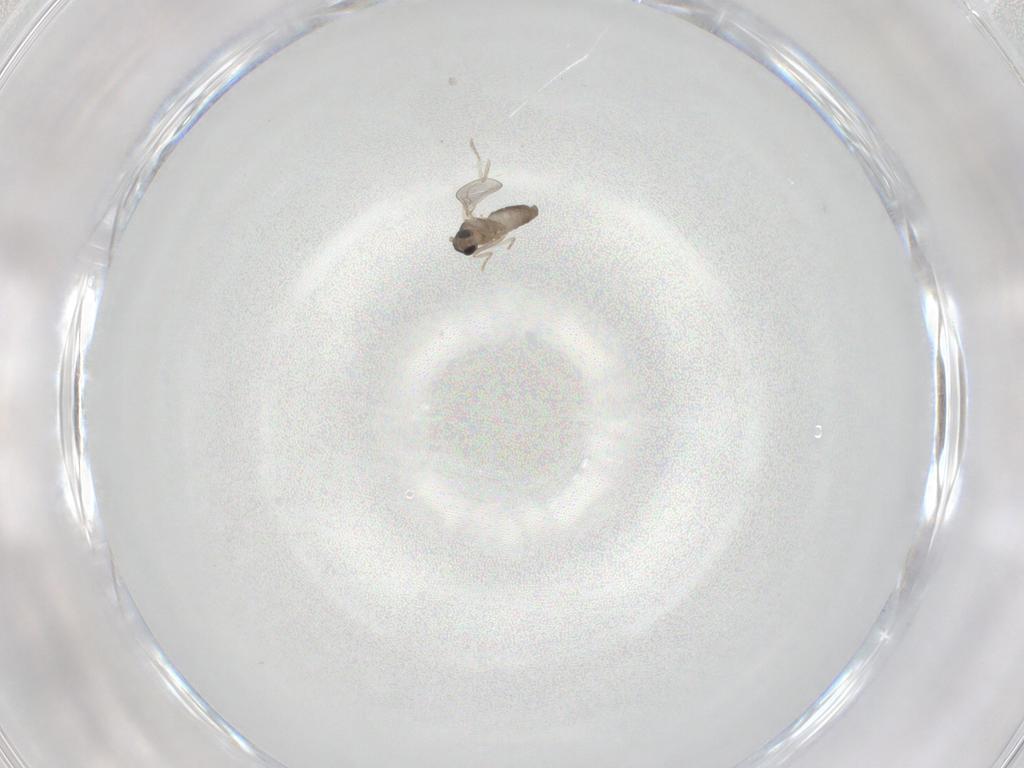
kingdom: Animalia
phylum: Arthropoda
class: Insecta
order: Diptera
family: Cecidomyiidae
